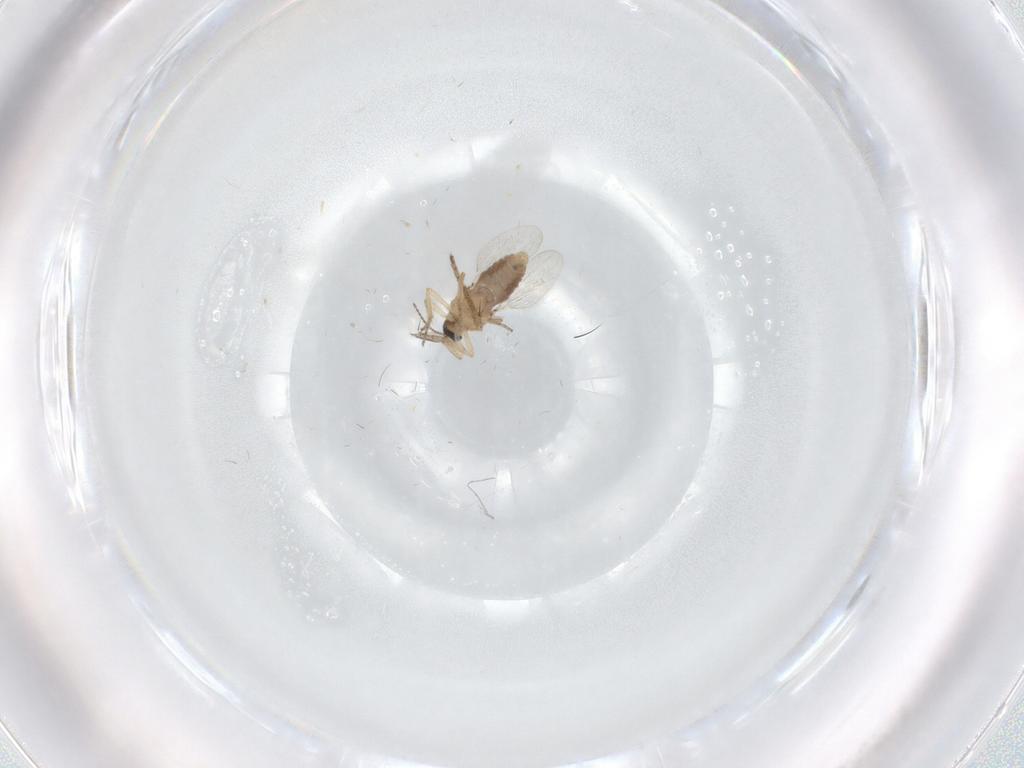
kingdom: Animalia
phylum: Arthropoda
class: Insecta
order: Diptera
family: Ceratopogonidae
